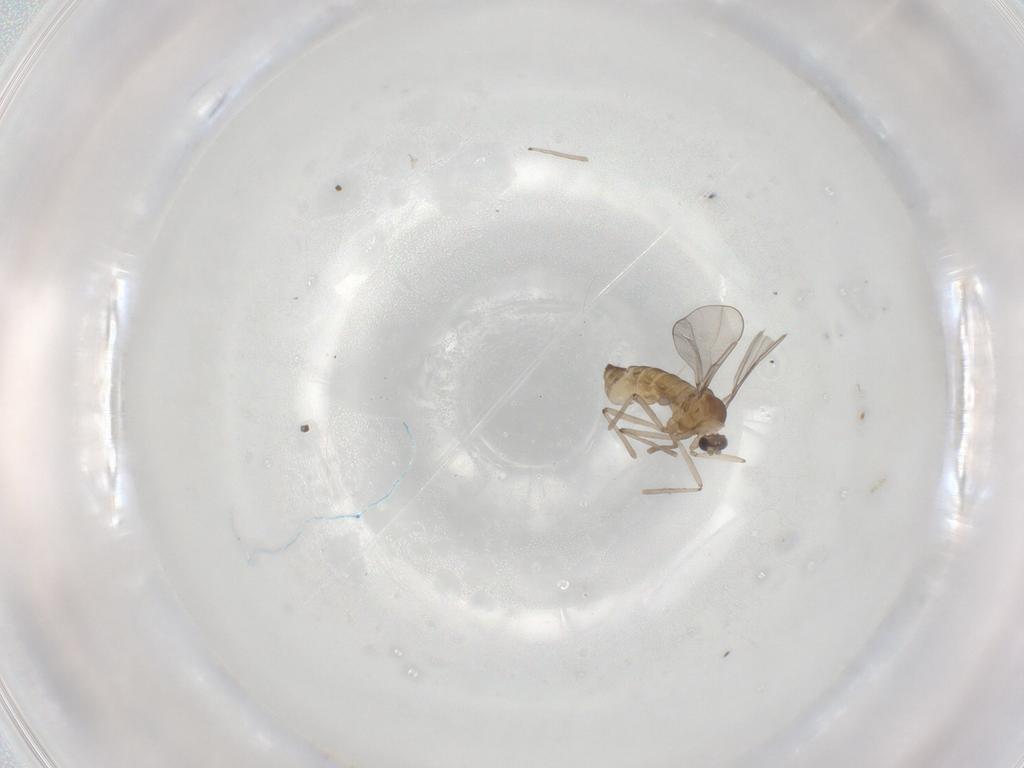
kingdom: Animalia
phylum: Arthropoda
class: Insecta
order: Diptera
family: Cecidomyiidae
